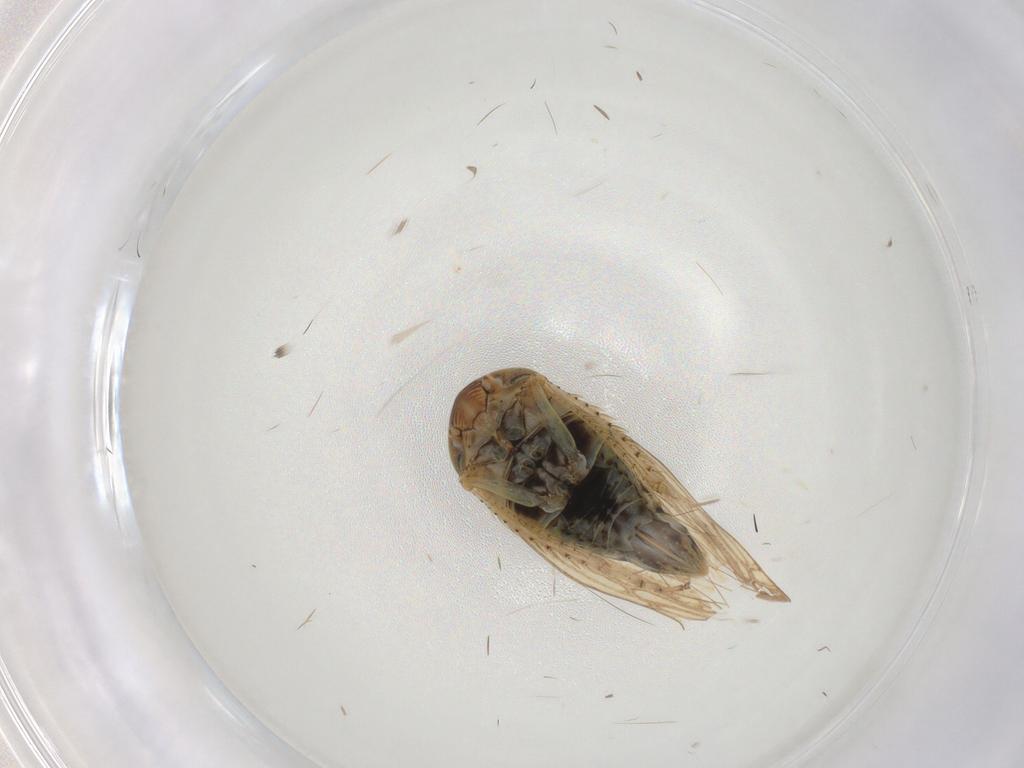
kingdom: Animalia
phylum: Arthropoda
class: Insecta
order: Hemiptera
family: Cicadellidae
